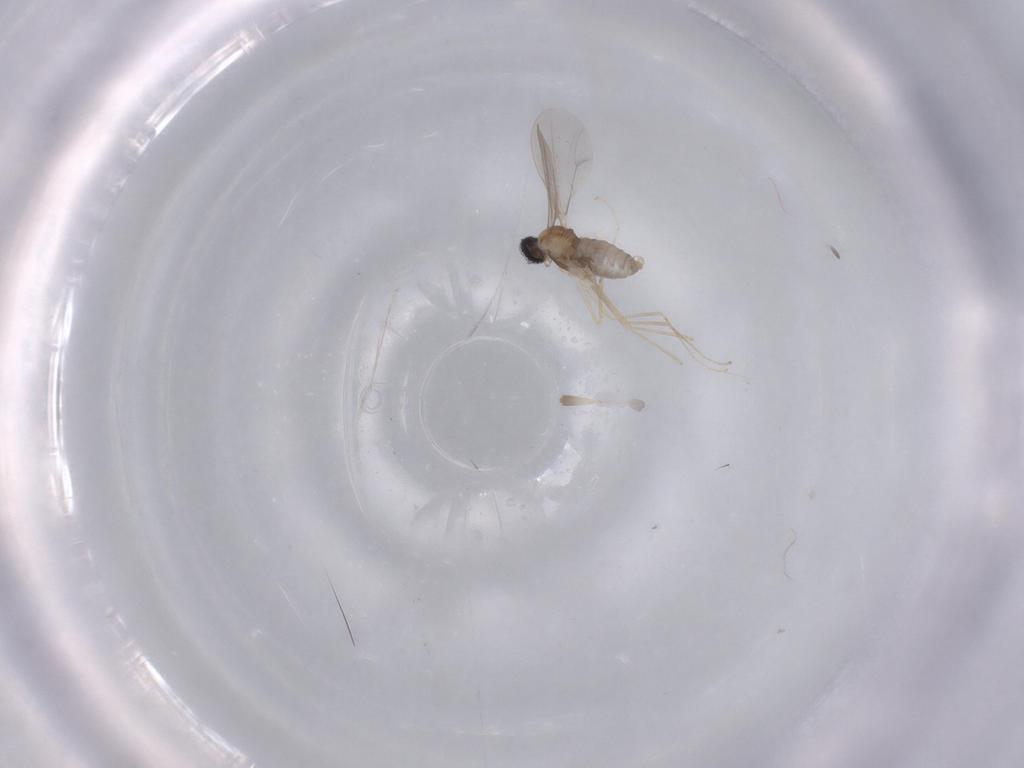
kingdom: Animalia
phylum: Arthropoda
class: Insecta
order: Diptera
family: Cecidomyiidae
